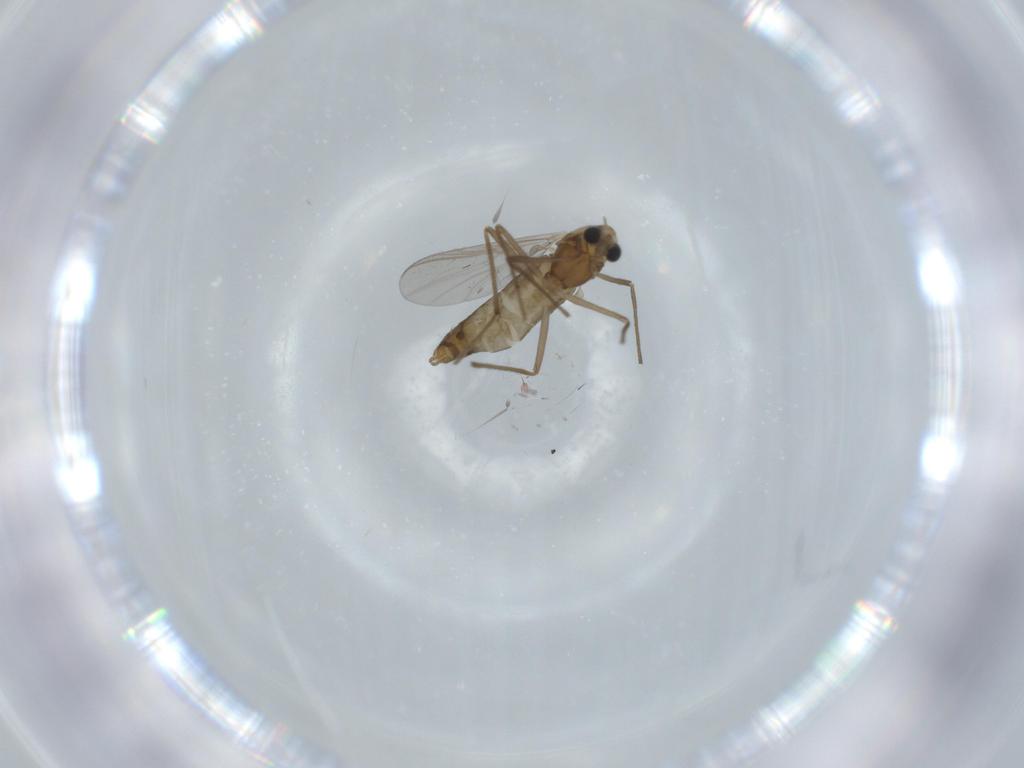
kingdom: Animalia
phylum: Arthropoda
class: Insecta
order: Diptera
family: Chironomidae
